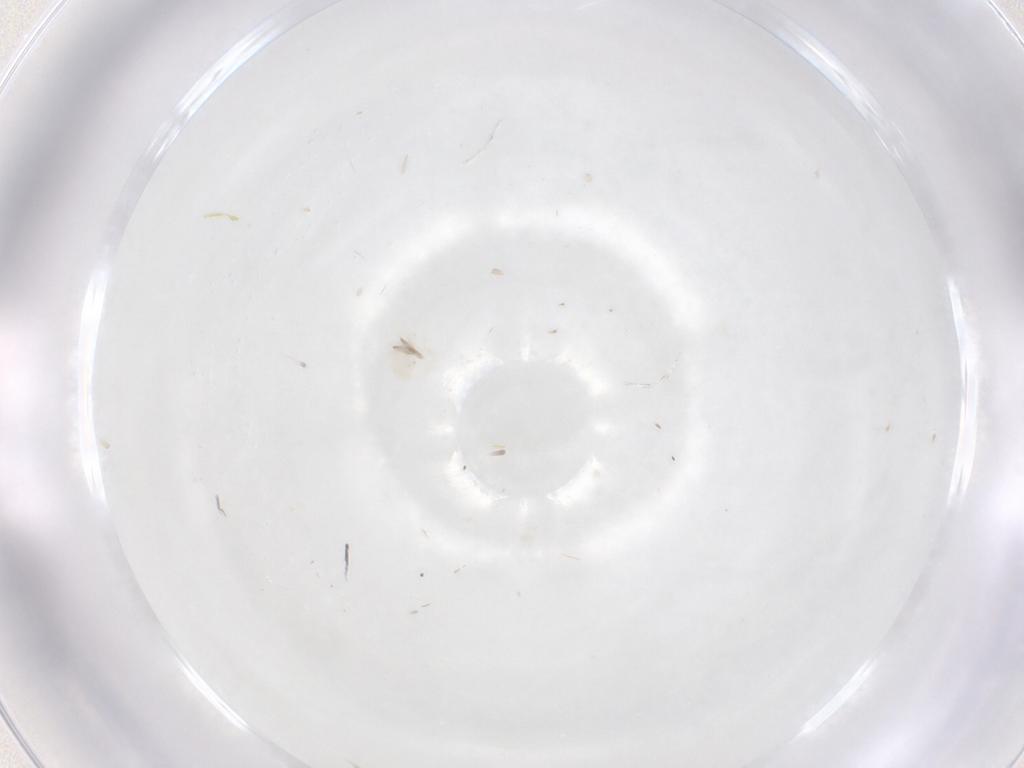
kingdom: Animalia
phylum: Arthropoda
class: Arachnida
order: Trombidiformes
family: Anystidae
